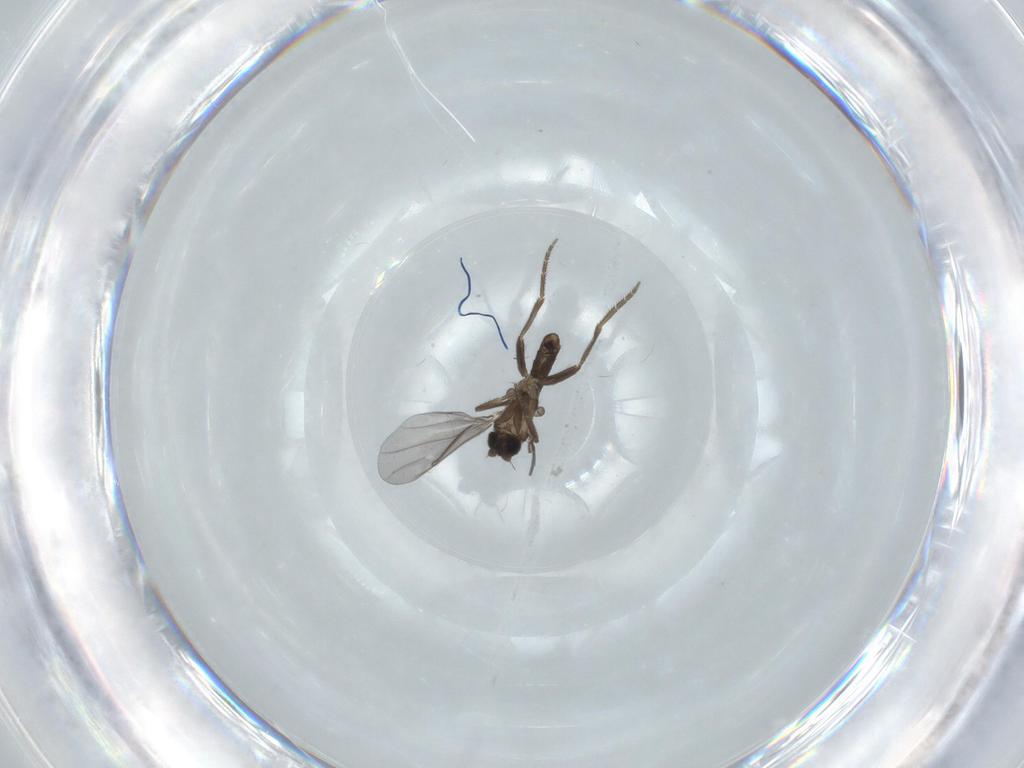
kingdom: Animalia
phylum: Arthropoda
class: Insecta
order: Diptera
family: Phoridae
